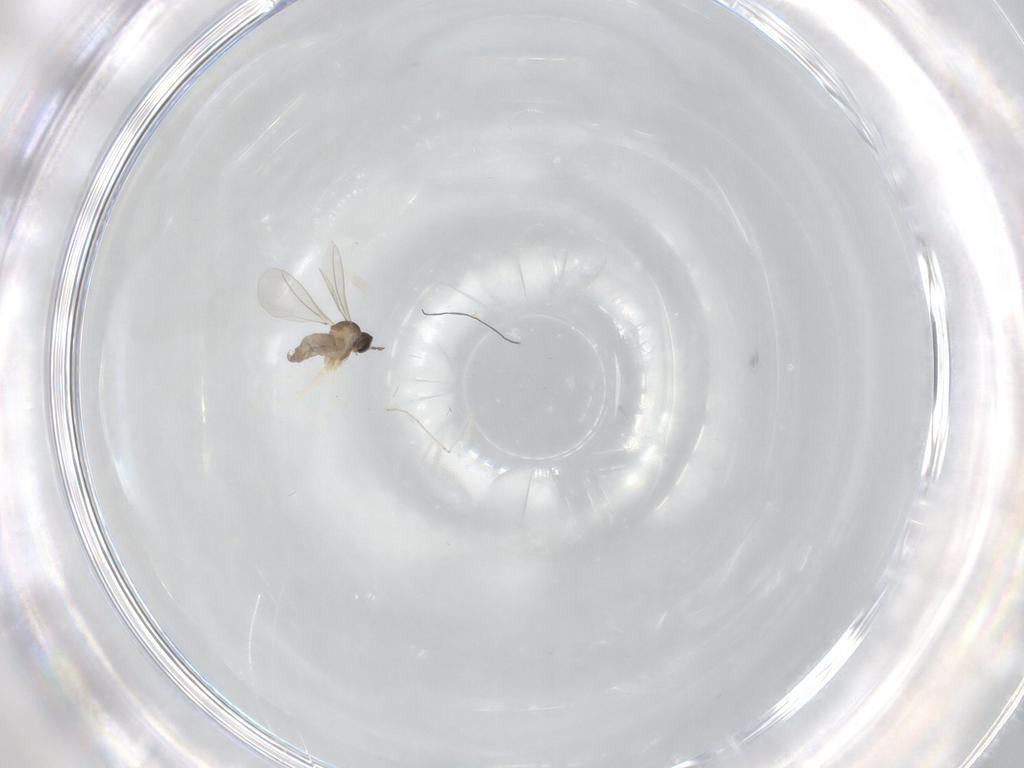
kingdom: Animalia
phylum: Arthropoda
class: Insecta
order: Diptera
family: Cecidomyiidae
